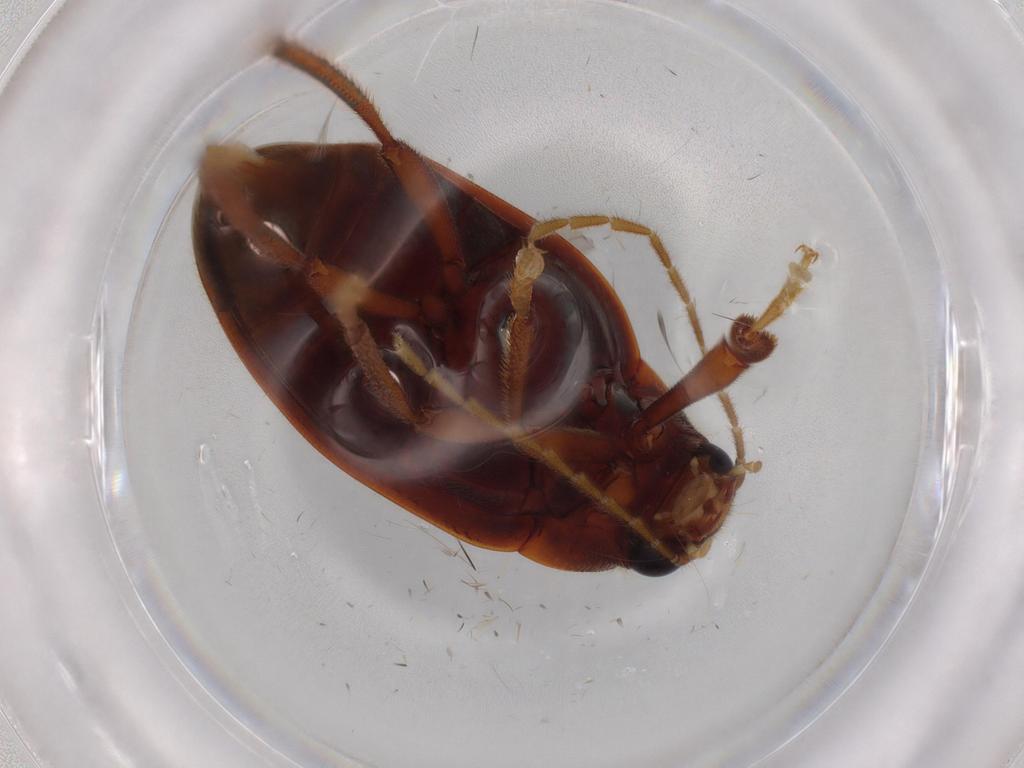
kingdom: Animalia
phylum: Arthropoda
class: Insecta
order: Coleoptera
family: Ptilodactylidae
